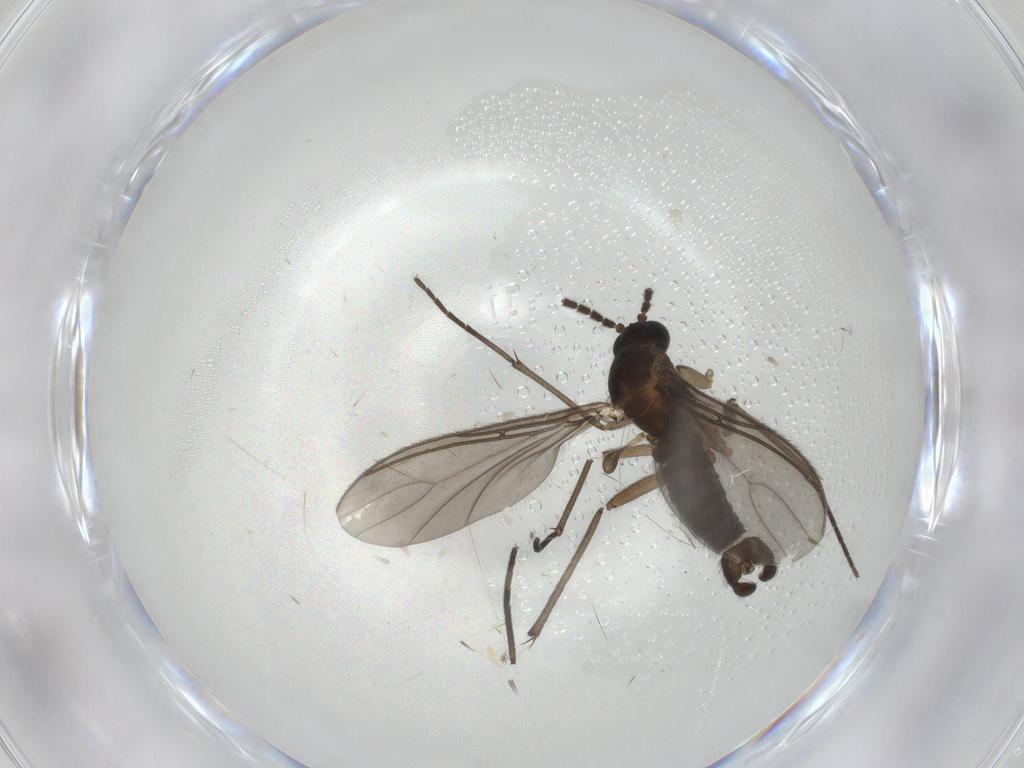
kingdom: Animalia
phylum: Arthropoda
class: Insecta
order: Diptera
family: Sciaridae
